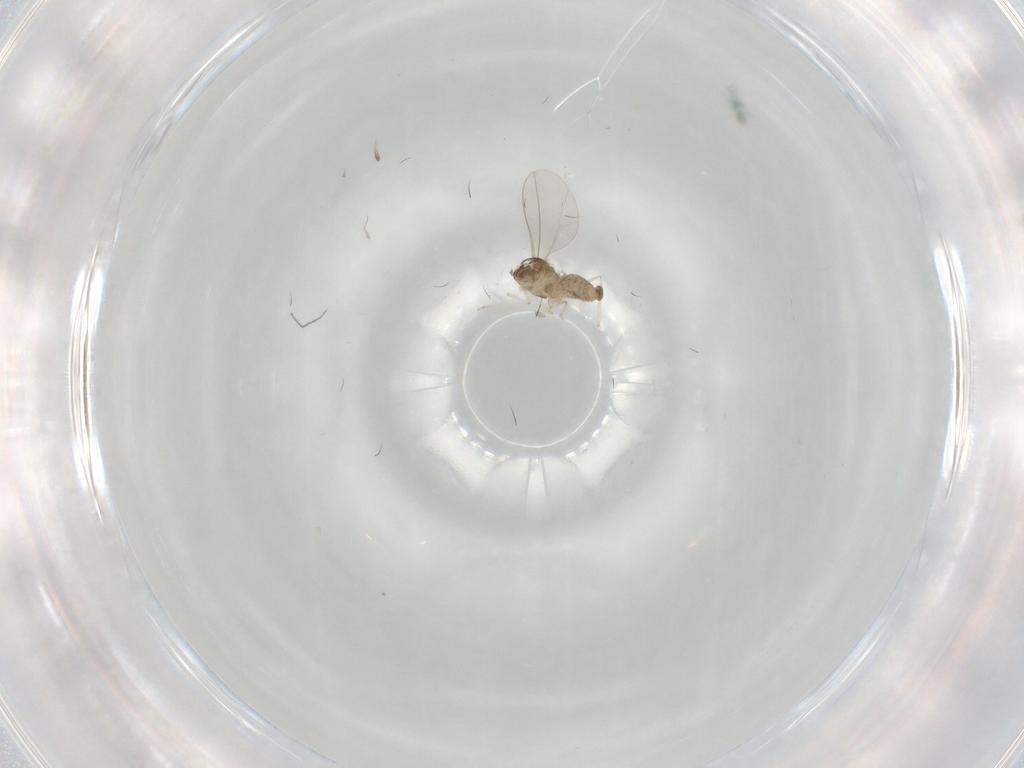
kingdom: Animalia
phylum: Arthropoda
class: Insecta
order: Diptera
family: Cecidomyiidae
